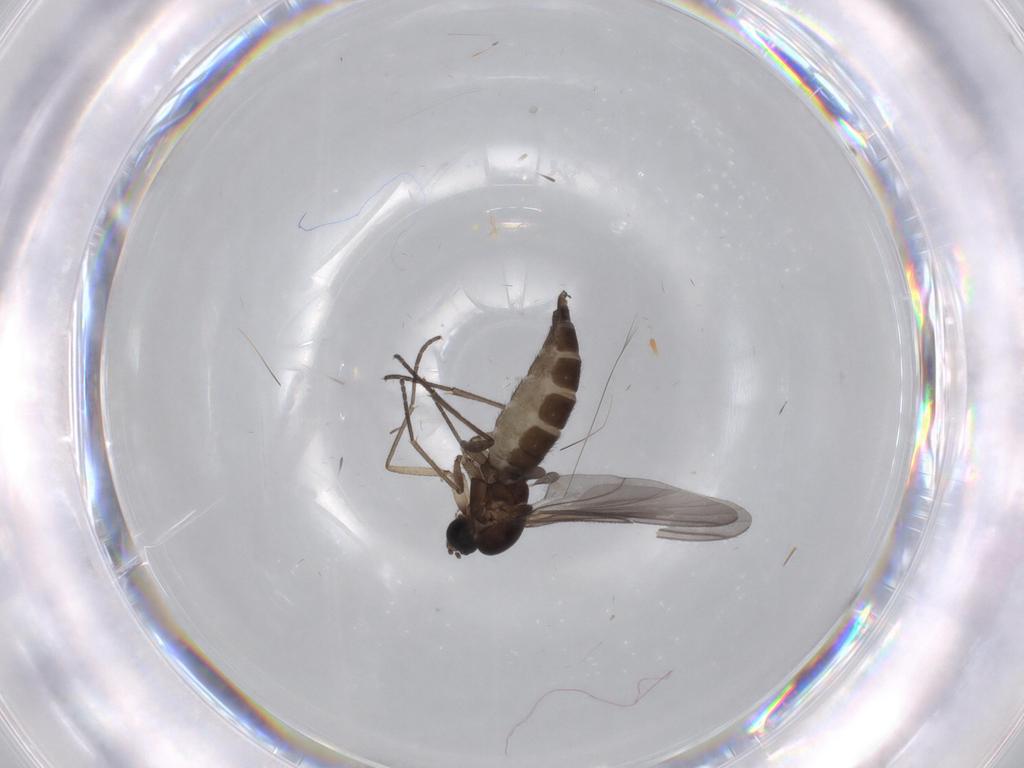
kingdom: Animalia
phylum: Arthropoda
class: Insecta
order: Diptera
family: Sciaridae
